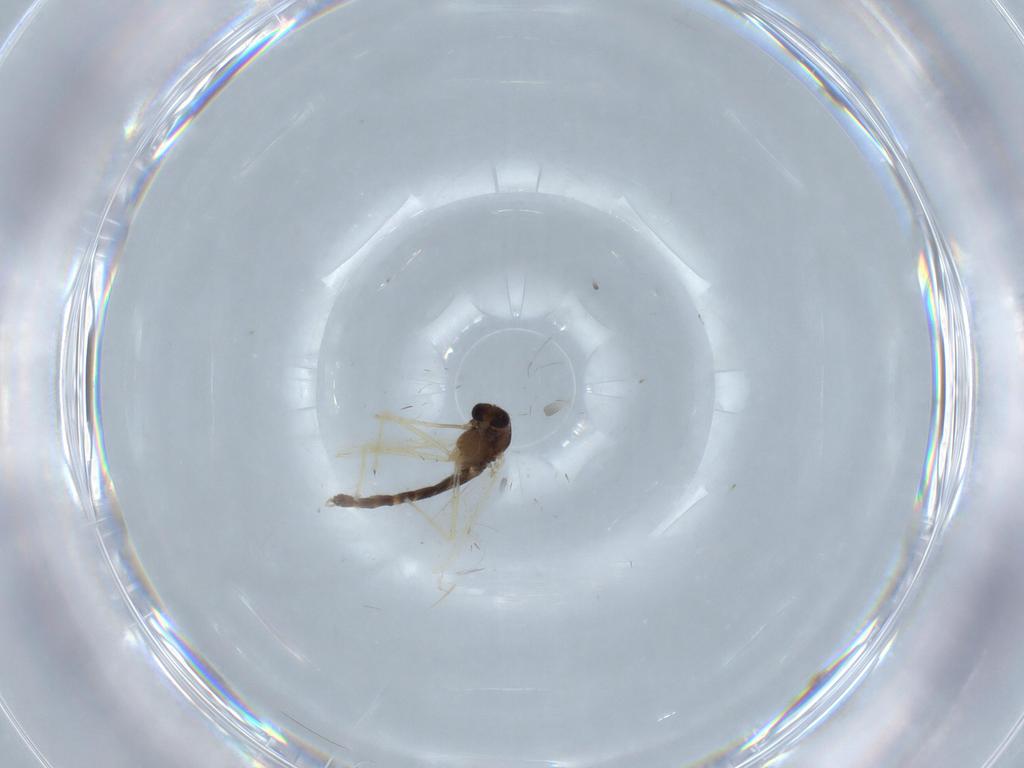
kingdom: Animalia
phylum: Arthropoda
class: Insecta
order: Diptera
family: Chironomidae
